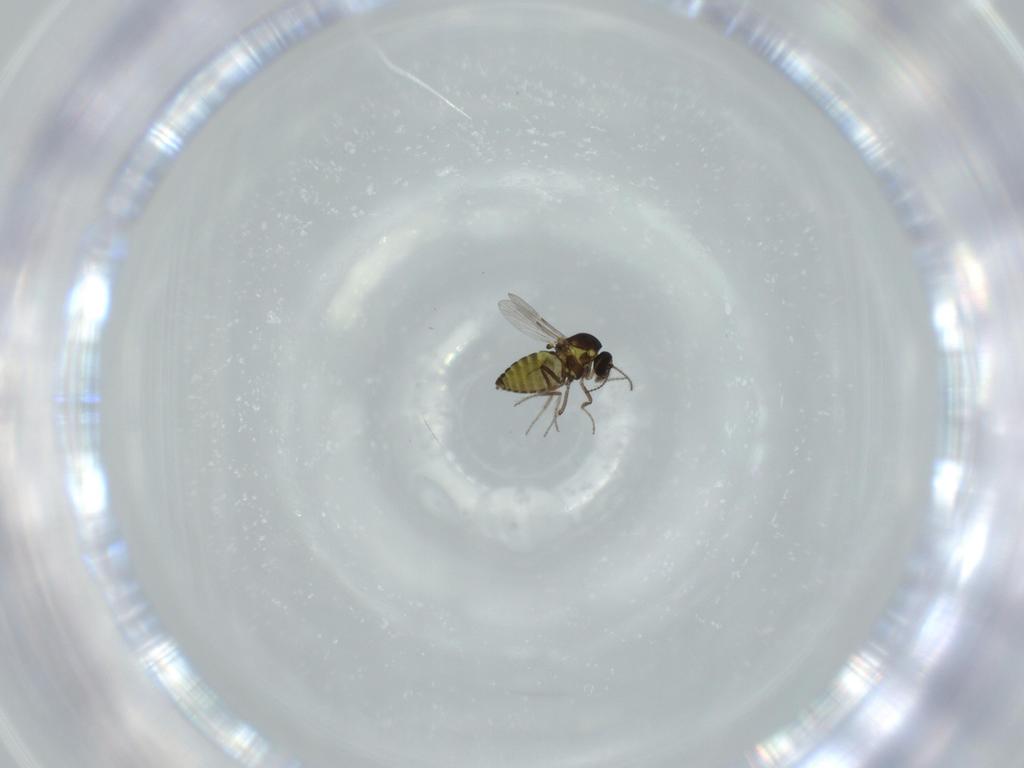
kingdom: Animalia
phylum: Arthropoda
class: Insecta
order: Diptera
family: Ceratopogonidae
